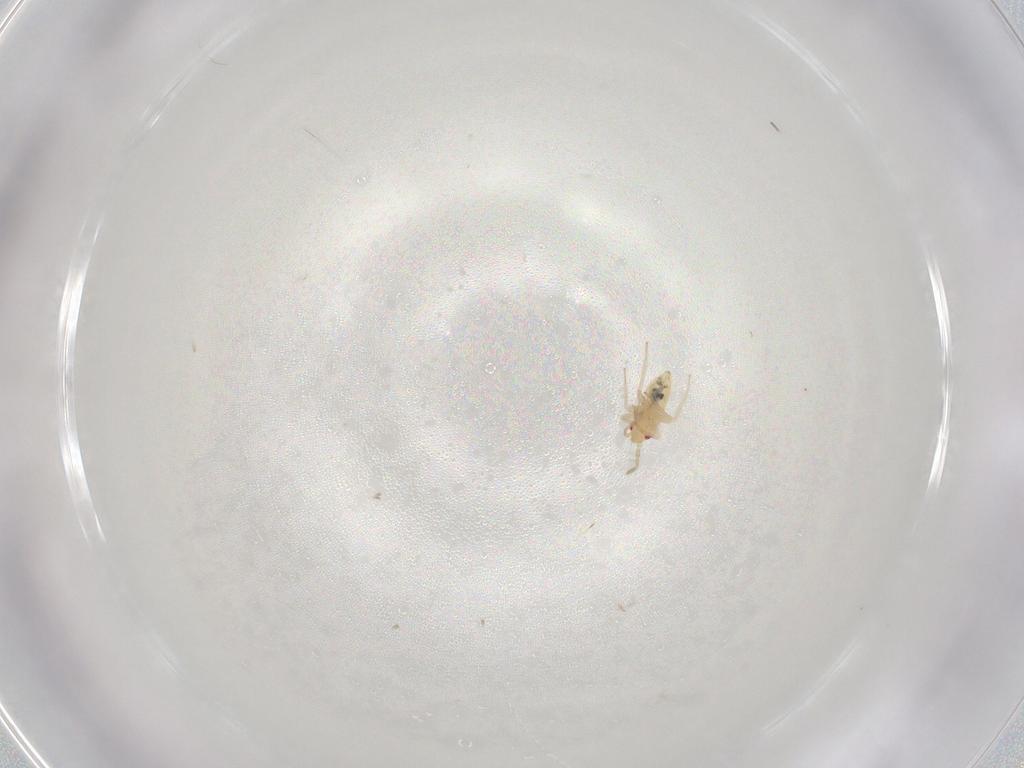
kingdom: Animalia
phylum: Arthropoda
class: Insecta
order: Hemiptera
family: Miridae
